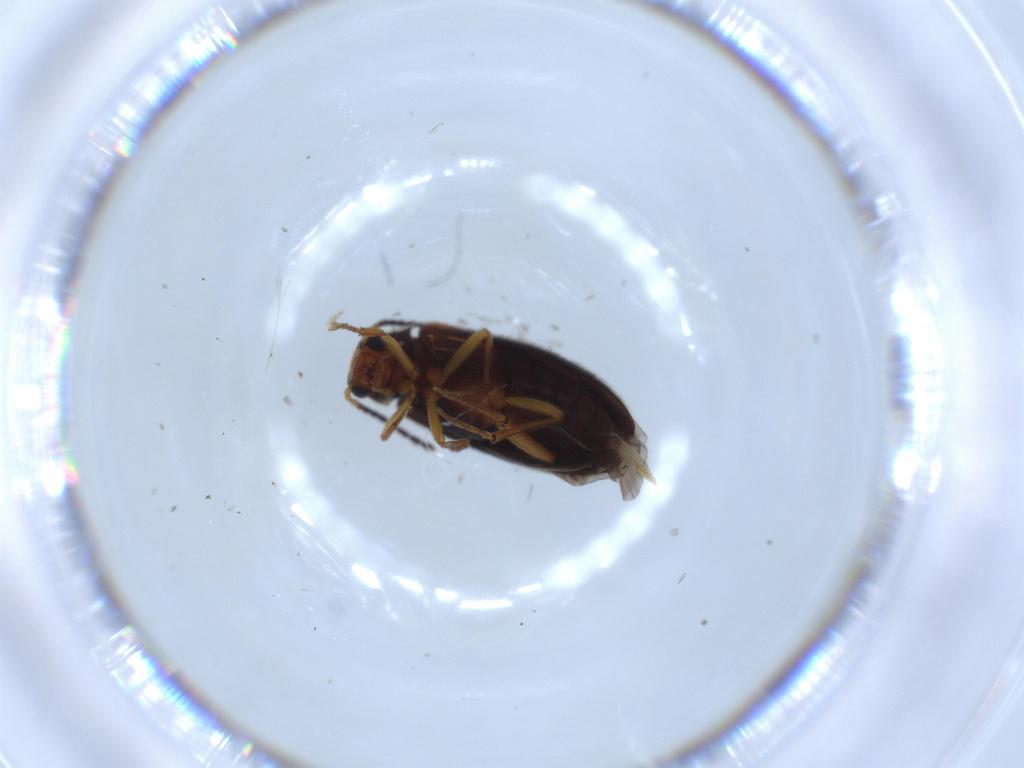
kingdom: Animalia
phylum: Arthropoda
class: Insecta
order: Coleoptera
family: Melandryidae
